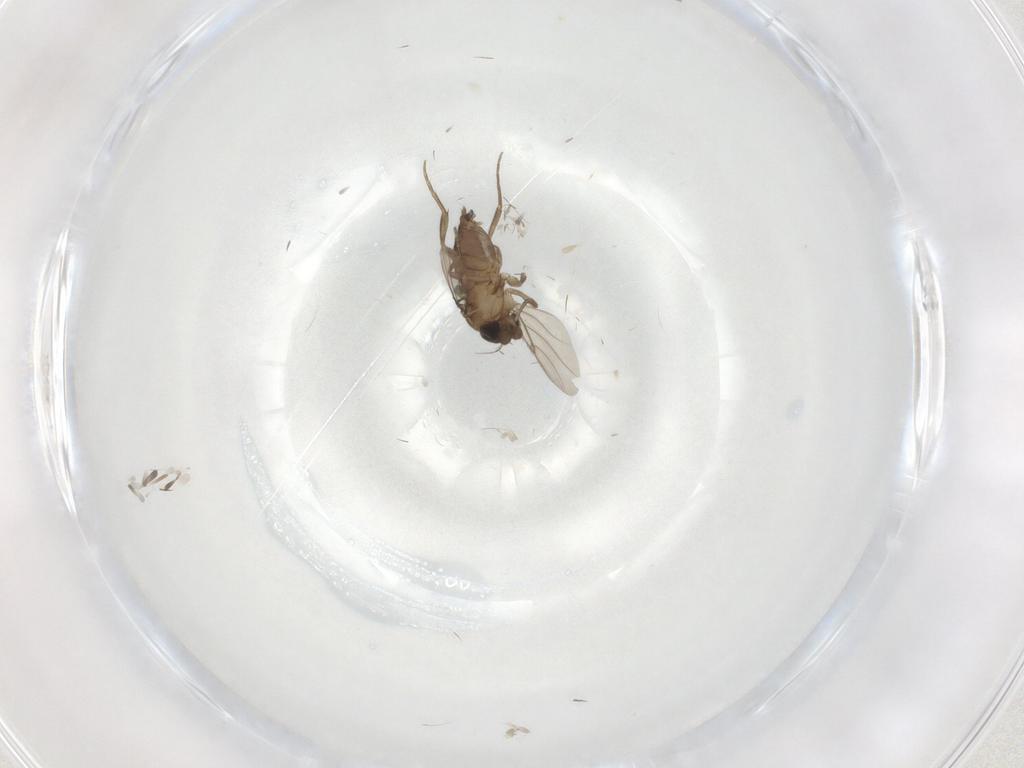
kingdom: Animalia
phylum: Arthropoda
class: Insecta
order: Diptera
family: Phoridae
